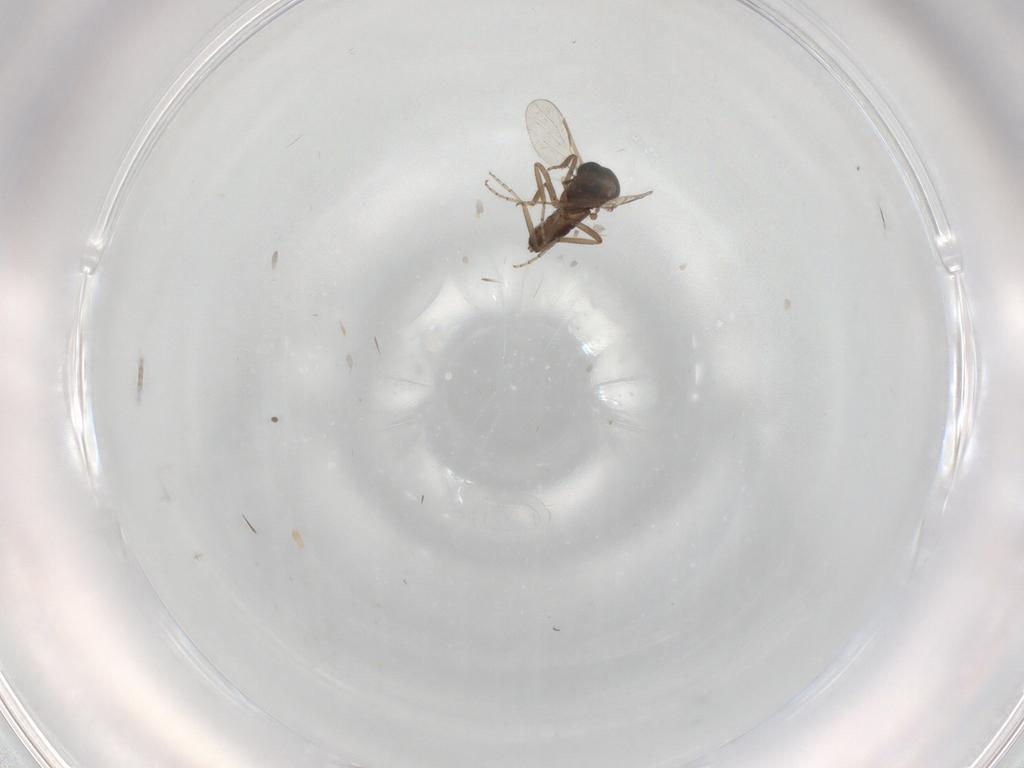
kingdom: Animalia
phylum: Arthropoda
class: Insecta
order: Diptera
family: Ceratopogonidae
